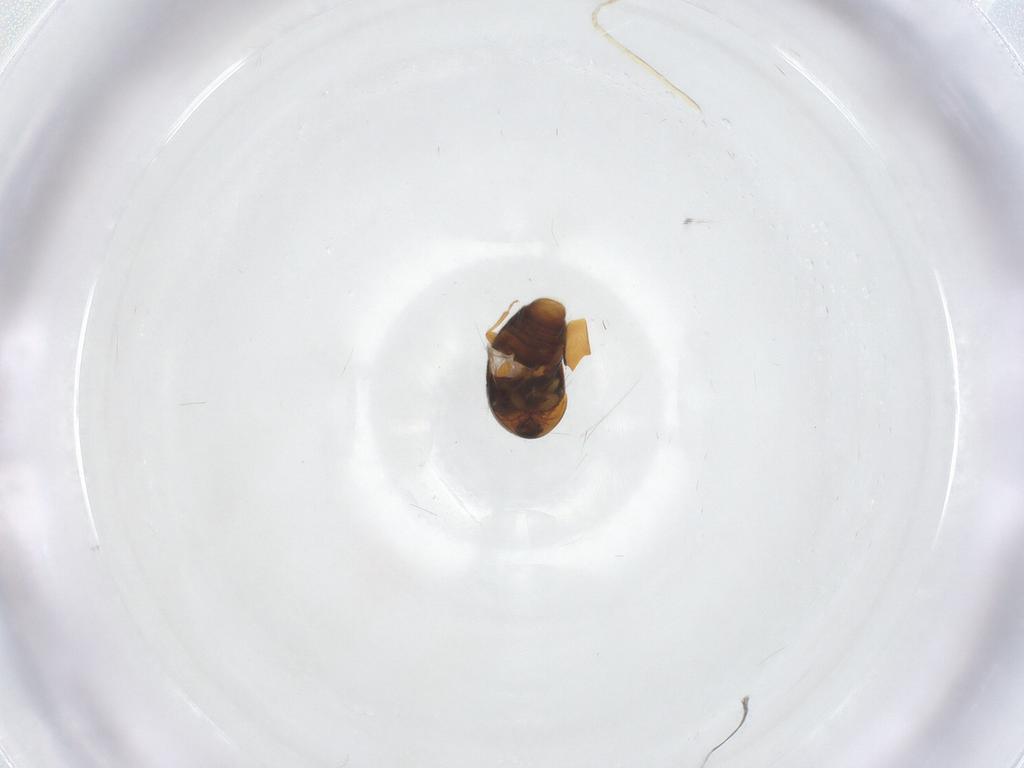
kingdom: Animalia
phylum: Arthropoda
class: Insecta
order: Coleoptera
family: Corylophidae
